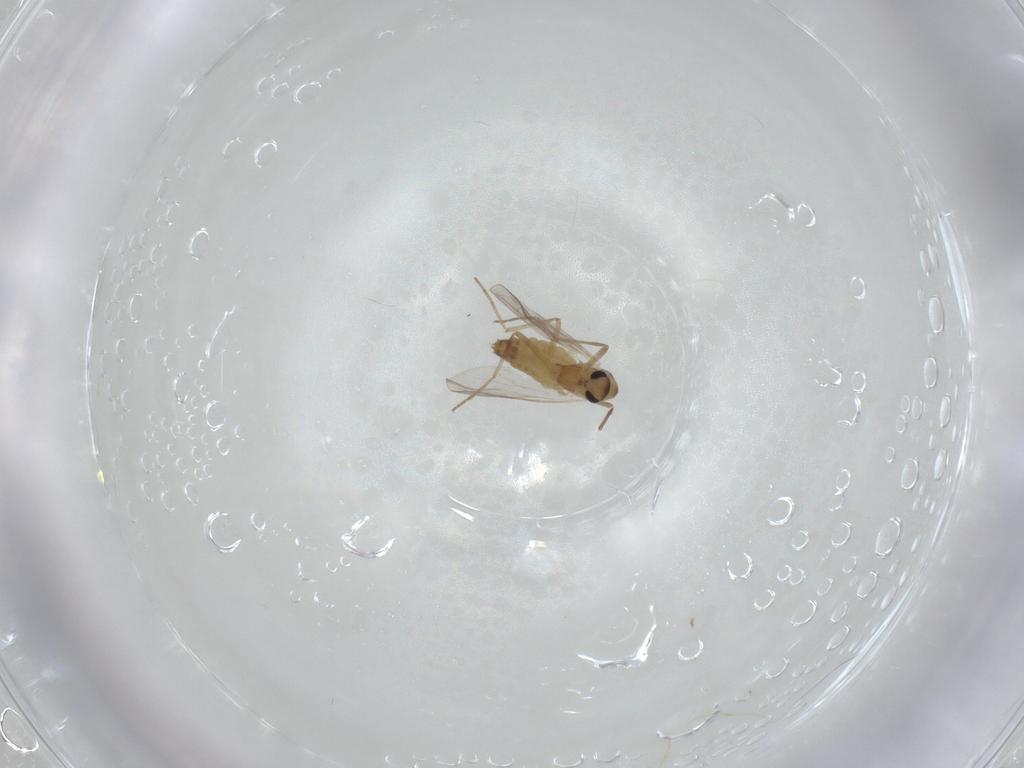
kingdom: Animalia
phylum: Arthropoda
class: Insecta
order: Diptera
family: Chironomidae
